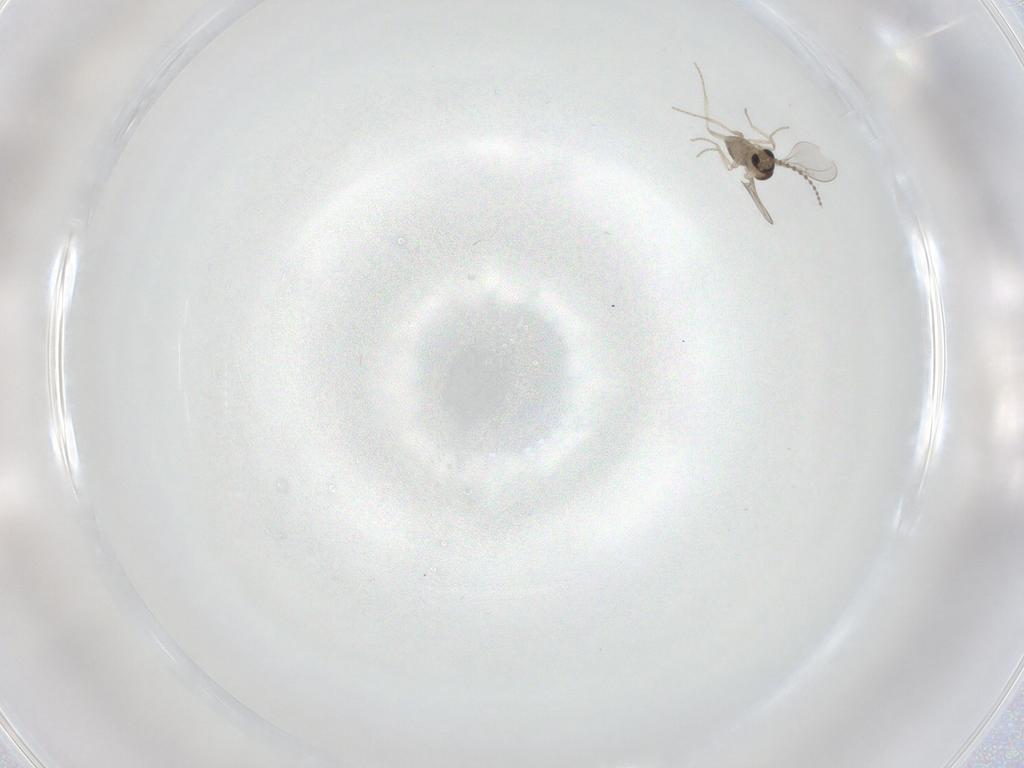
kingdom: Animalia
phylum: Arthropoda
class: Insecta
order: Diptera
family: Cecidomyiidae
